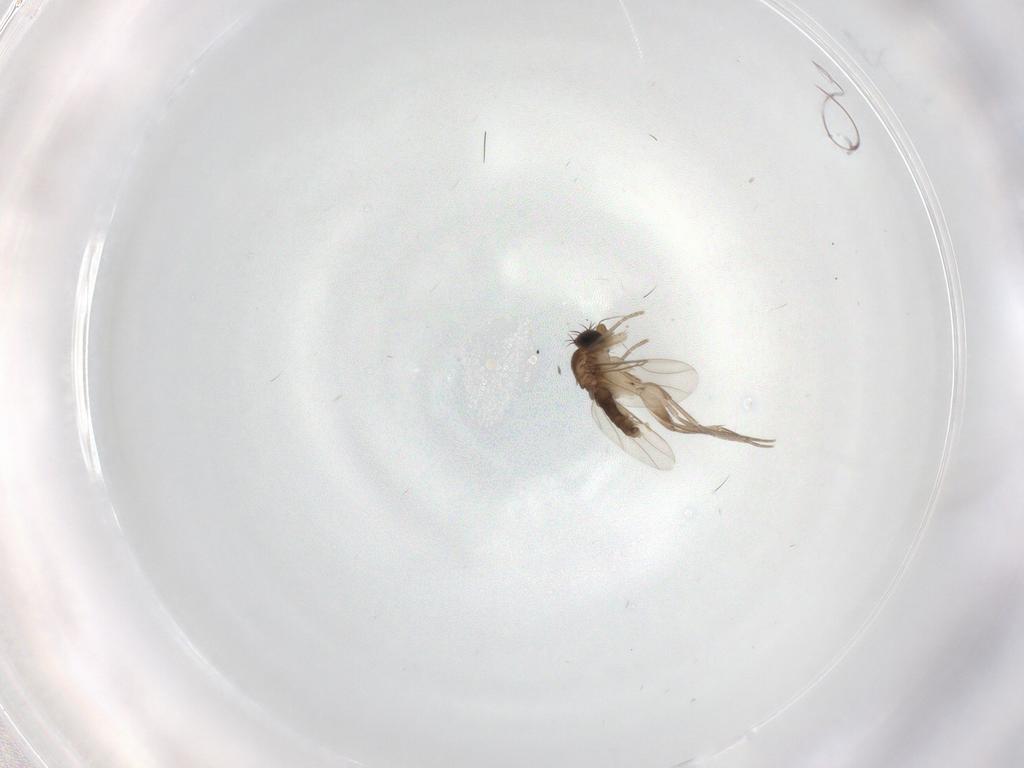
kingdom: Animalia
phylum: Arthropoda
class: Insecta
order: Diptera
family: Phoridae
